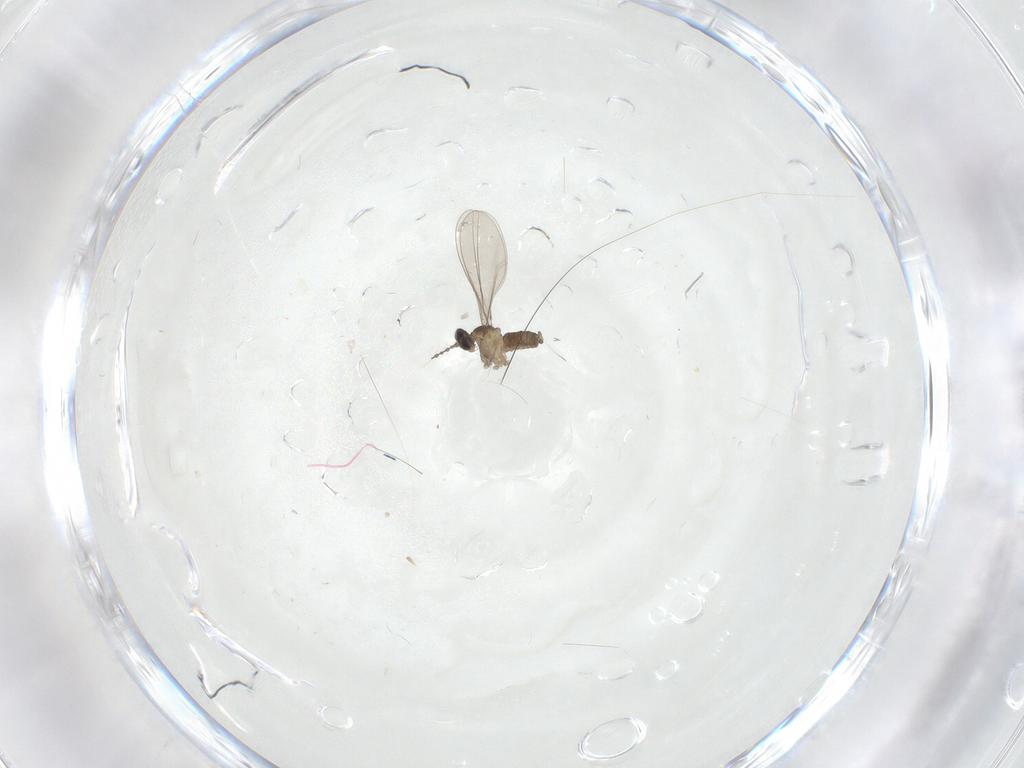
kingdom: Animalia
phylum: Arthropoda
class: Insecta
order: Diptera
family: Cecidomyiidae
